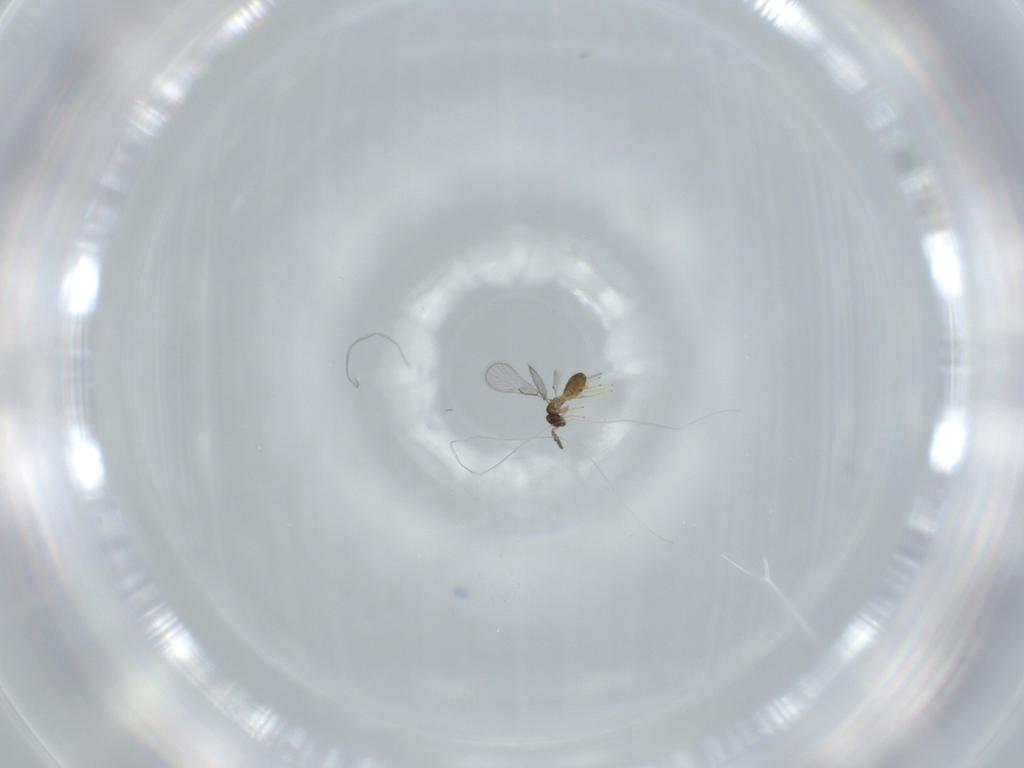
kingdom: Animalia
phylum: Arthropoda
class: Insecta
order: Hymenoptera
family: Trichogrammatidae
